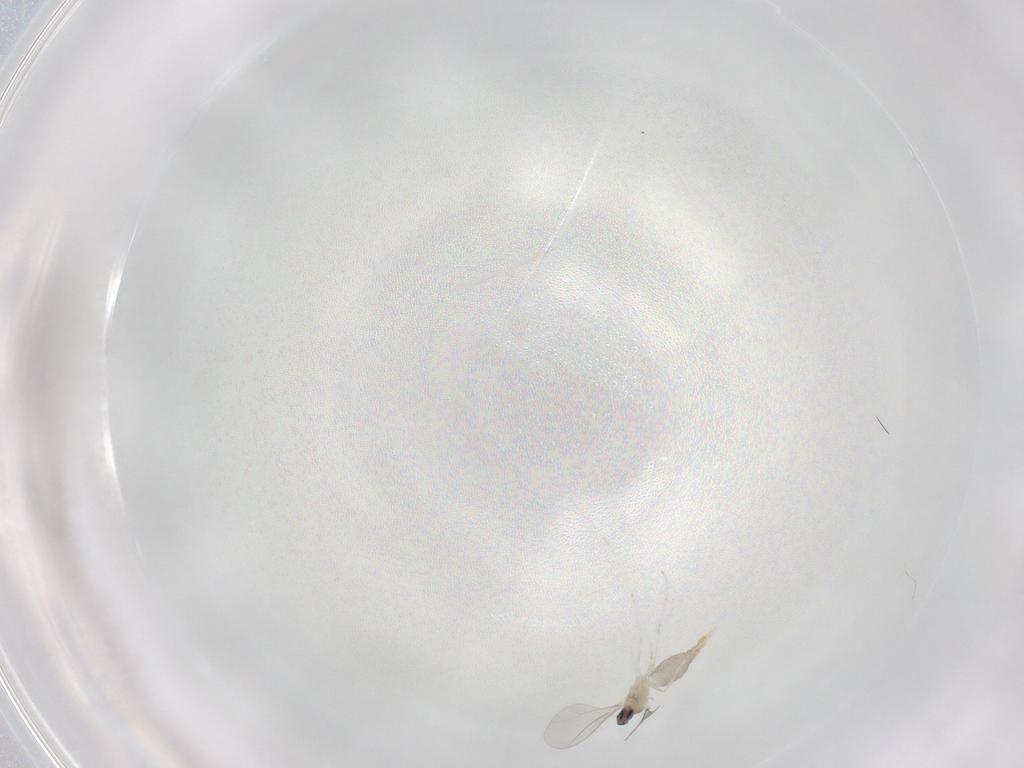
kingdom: Animalia
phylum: Arthropoda
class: Insecta
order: Diptera
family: Cecidomyiidae
